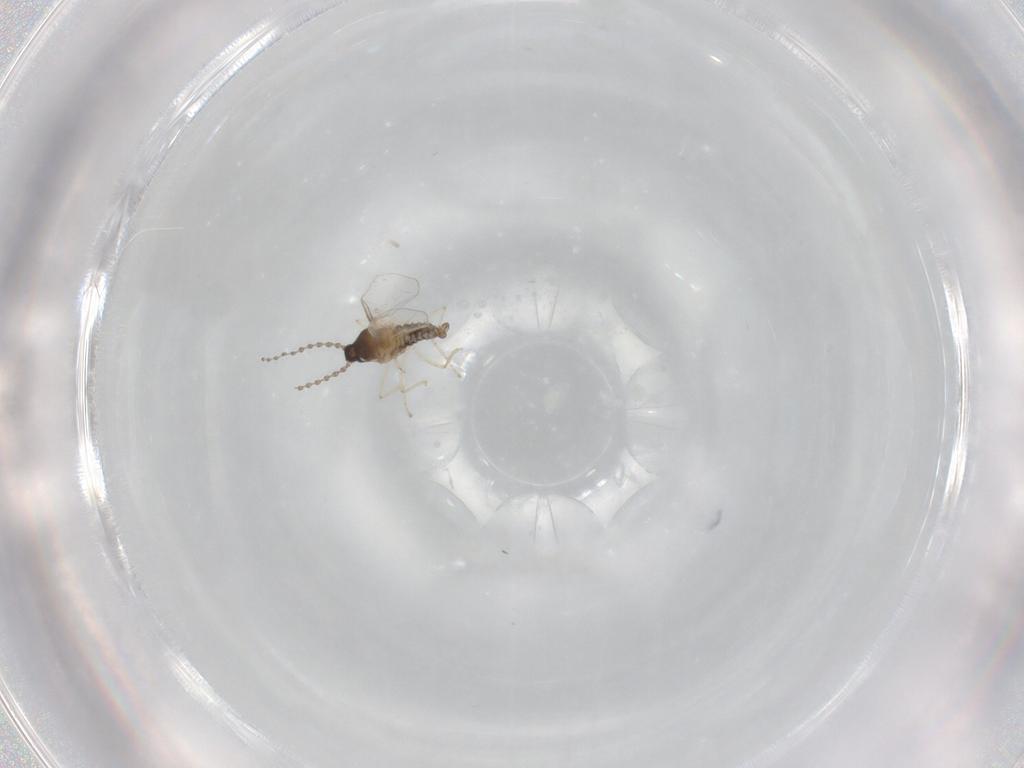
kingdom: Animalia
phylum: Arthropoda
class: Insecta
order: Diptera
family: Cecidomyiidae
